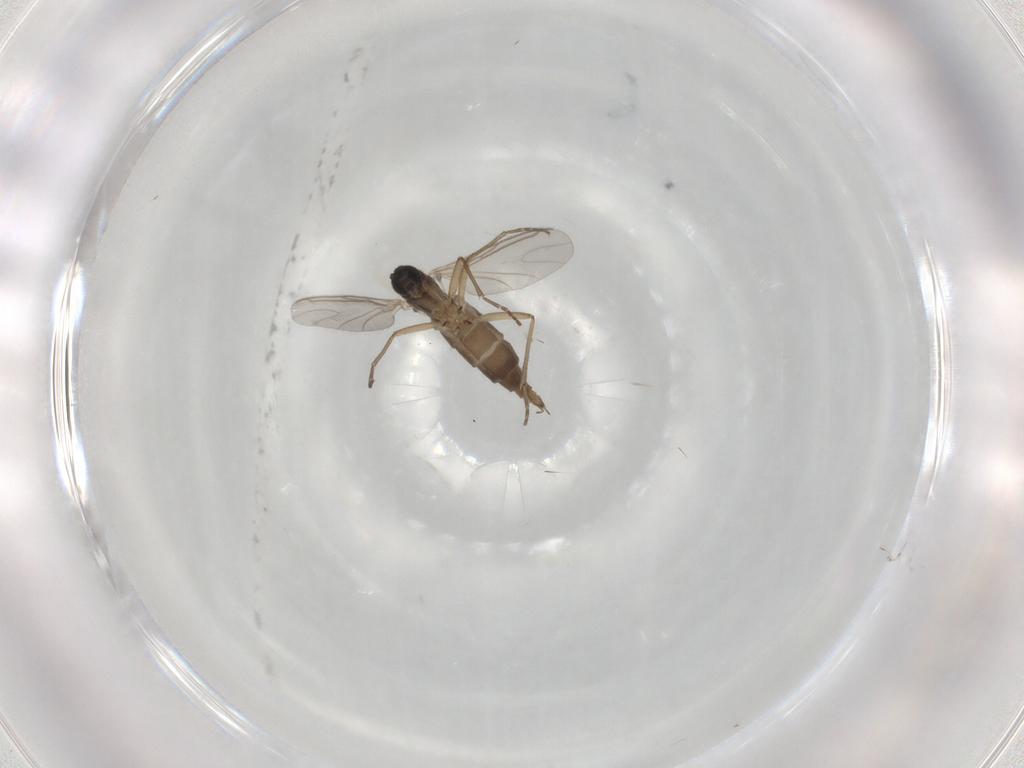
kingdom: Animalia
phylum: Arthropoda
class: Insecta
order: Diptera
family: Sciaridae
